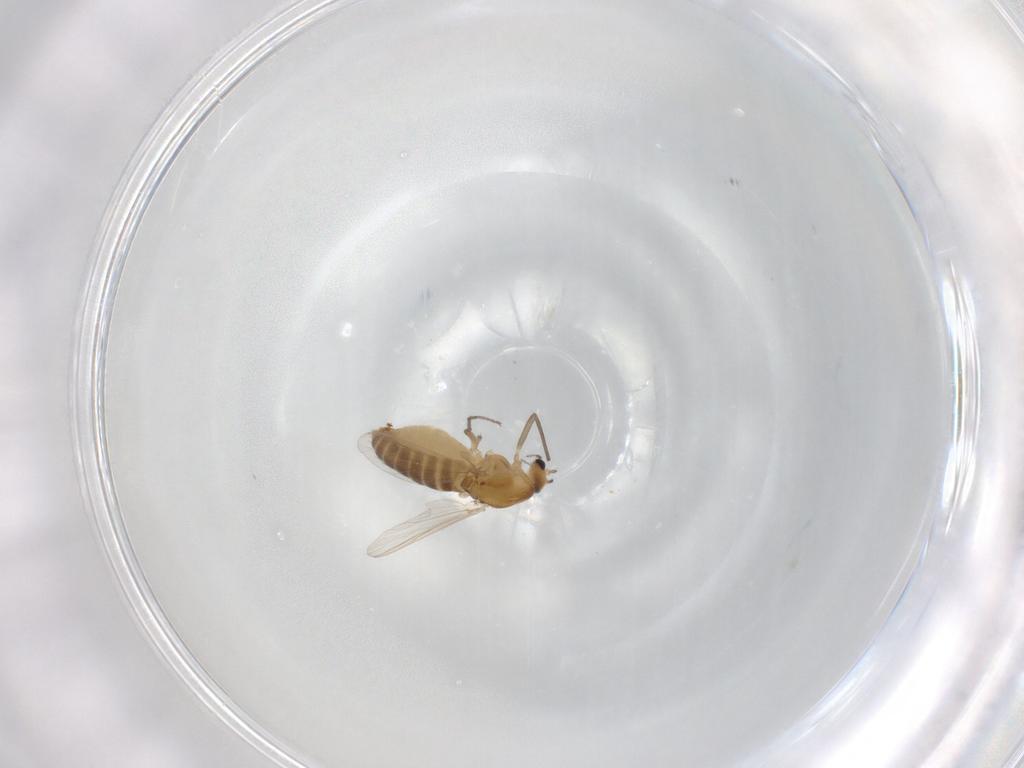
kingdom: Animalia
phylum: Arthropoda
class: Insecta
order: Diptera
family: Chironomidae
